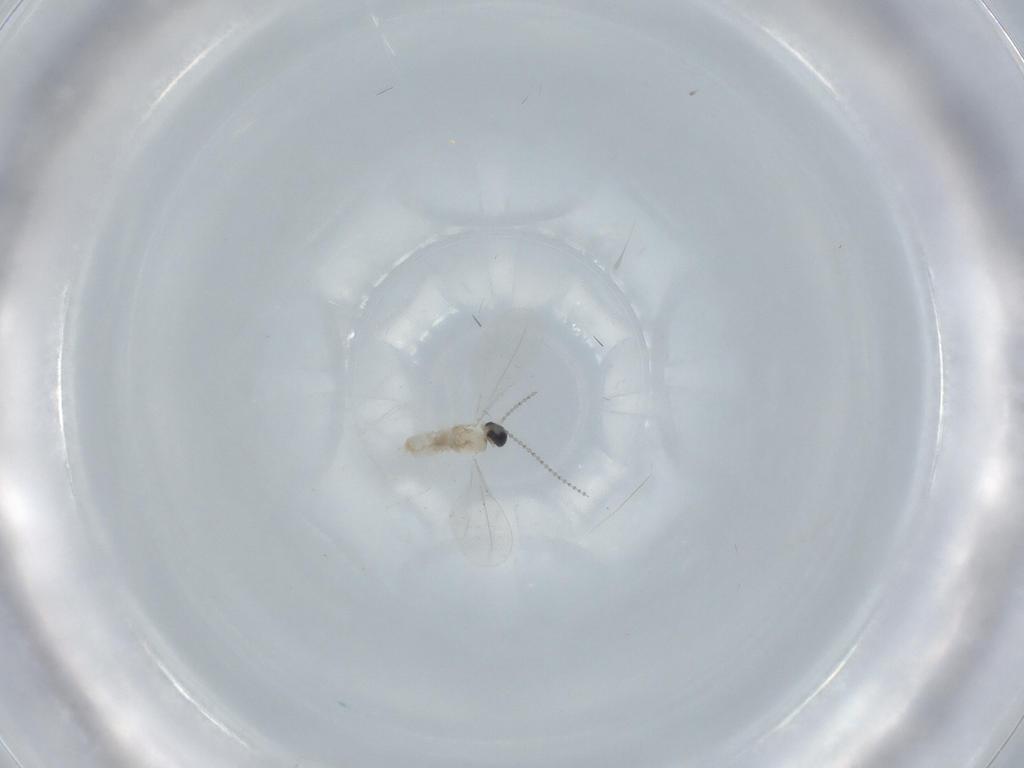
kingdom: Animalia
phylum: Arthropoda
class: Insecta
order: Diptera
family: Cecidomyiidae
